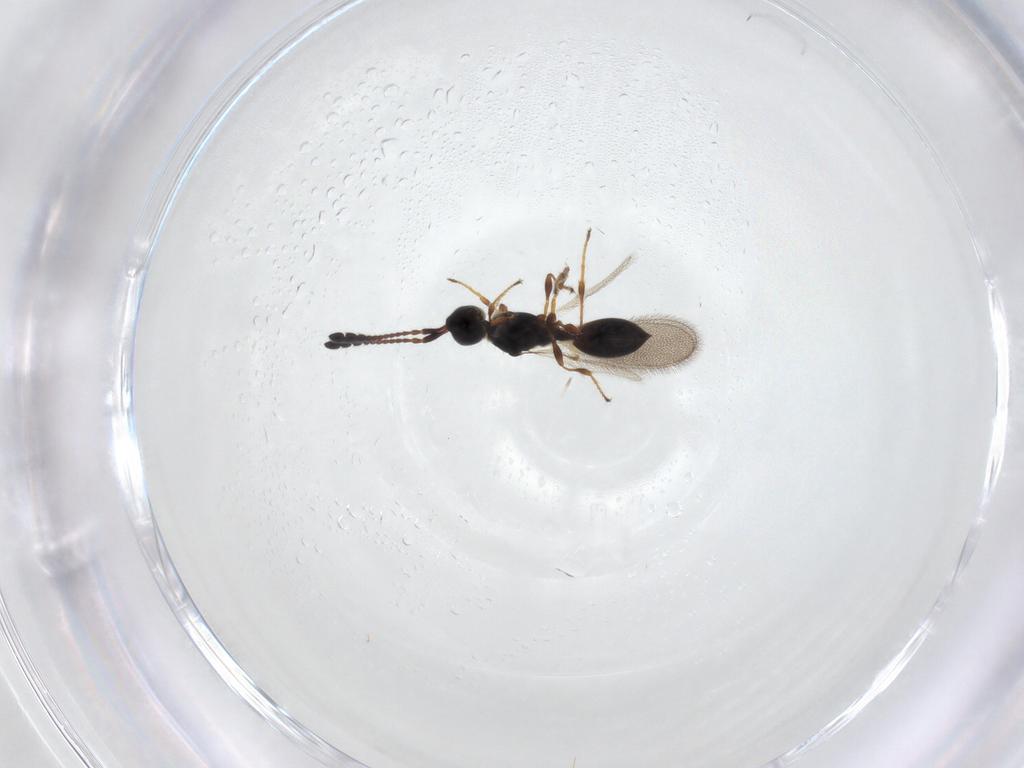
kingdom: Animalia
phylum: Arthropoda
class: Insecta
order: Hymenoptera
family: Diapriidae
